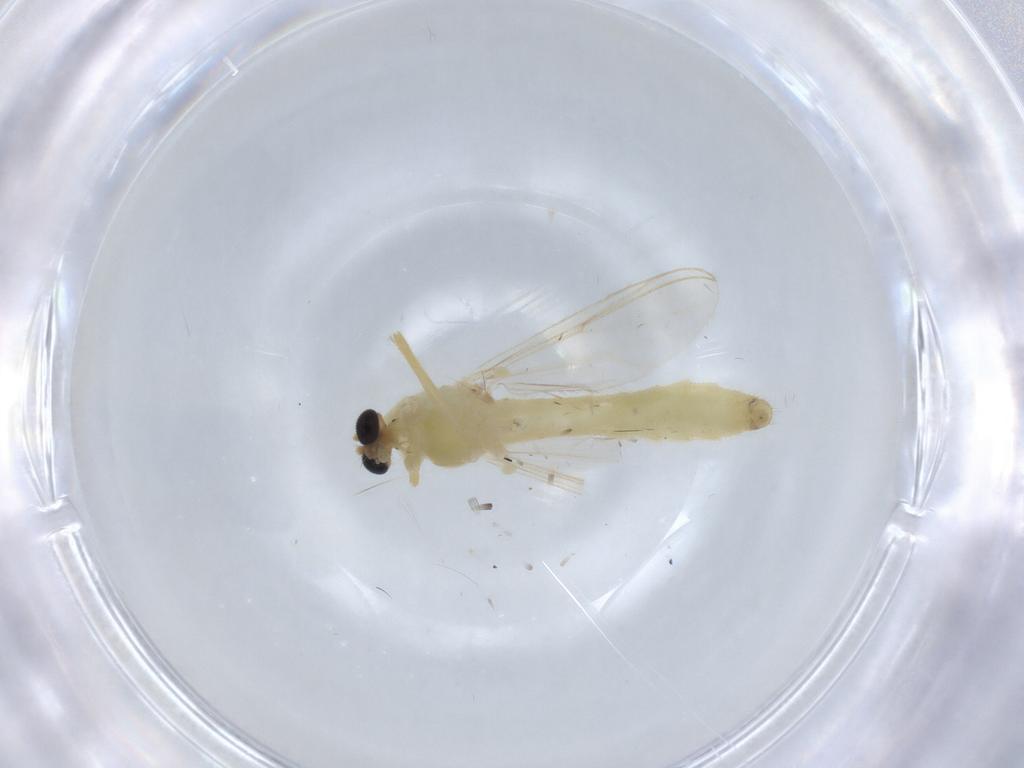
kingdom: Animalia
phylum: Arthropoda
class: Insecta
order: Diptera
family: Chironomidae
